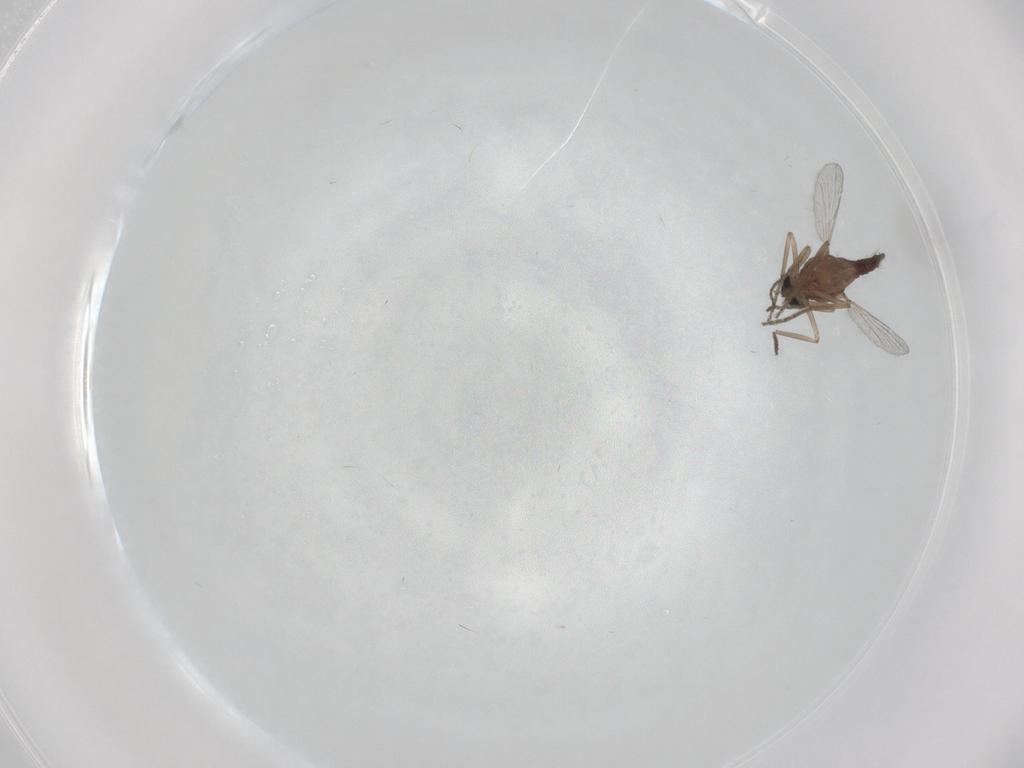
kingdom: Animalia
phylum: Arthropoda
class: Insecta
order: Diptera
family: Ceratopogonidae
